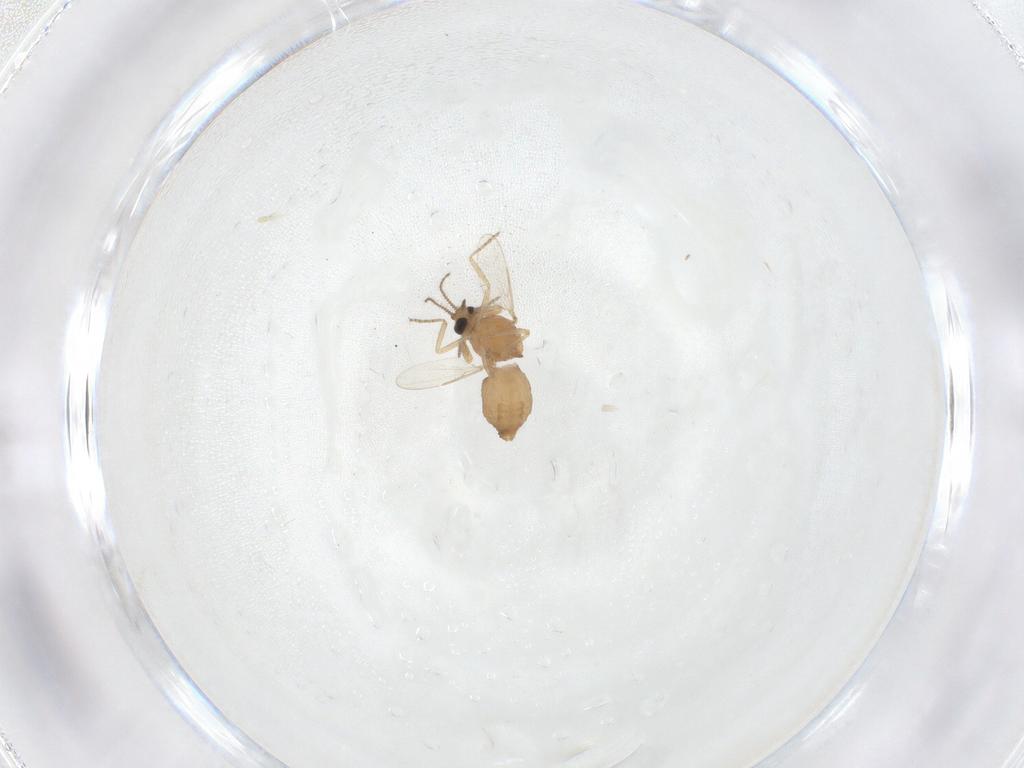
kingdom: Animalia
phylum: Arthropoda
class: Insecta
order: Diptera
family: Ceratopogonidae
